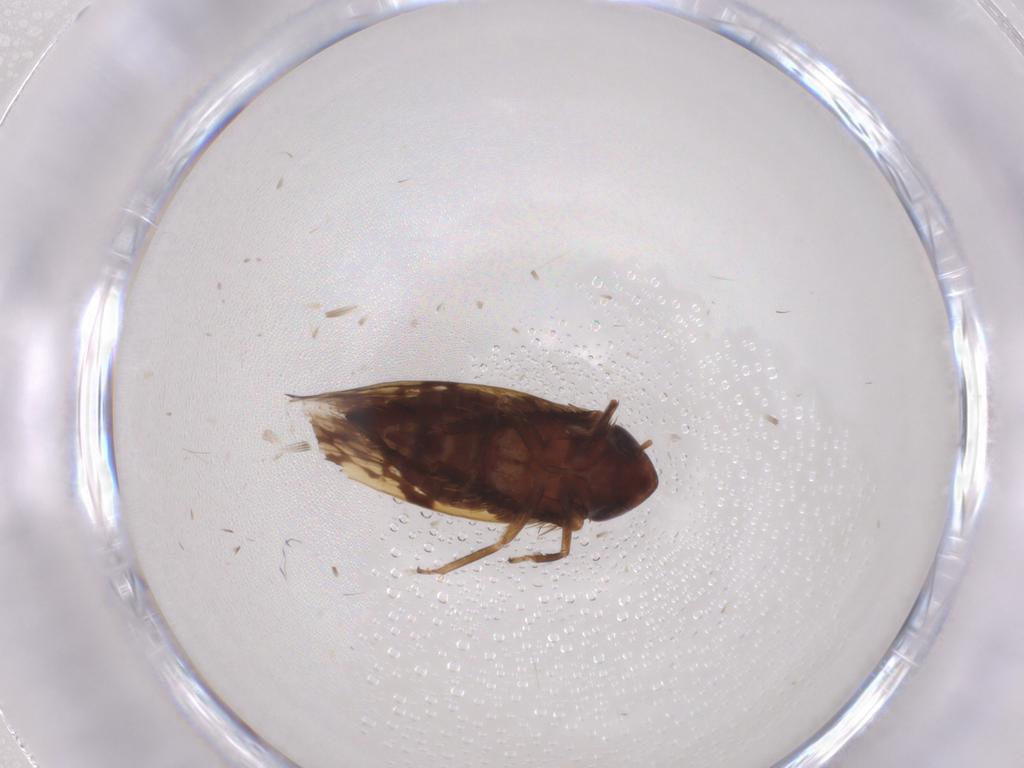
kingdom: Animalia
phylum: Arthropoda
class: Insecta
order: Hemiptera
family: Cicadellidae
